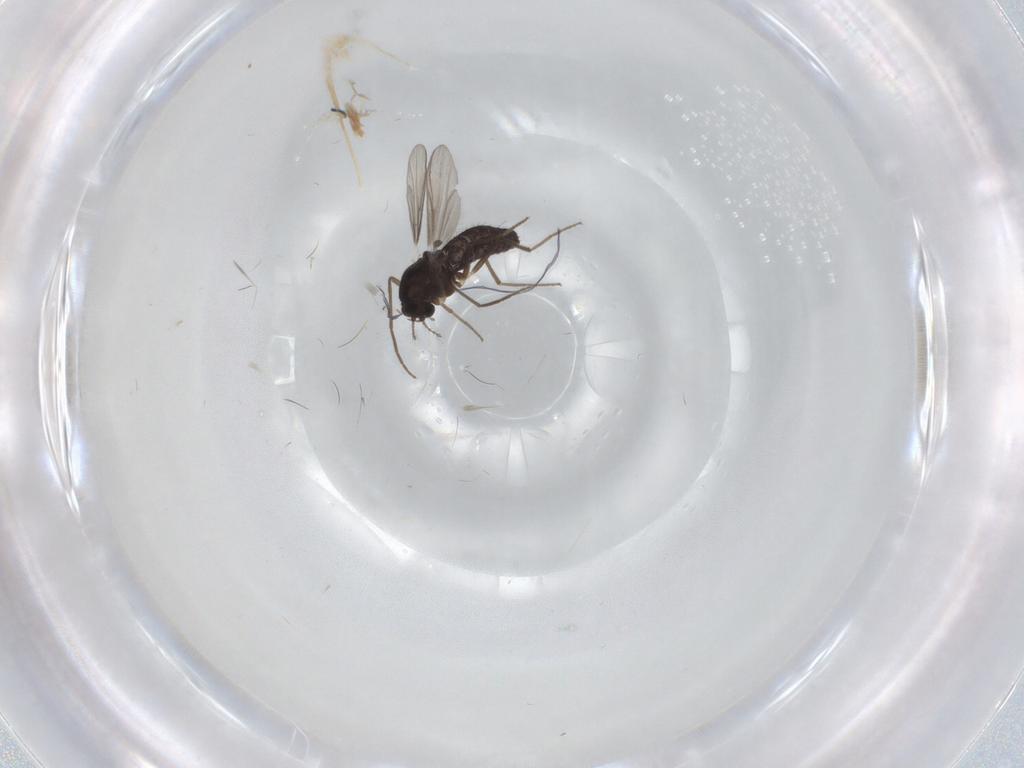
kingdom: Animalia
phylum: Arthropoda
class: Insecta
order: Diptera
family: Chironomidae
